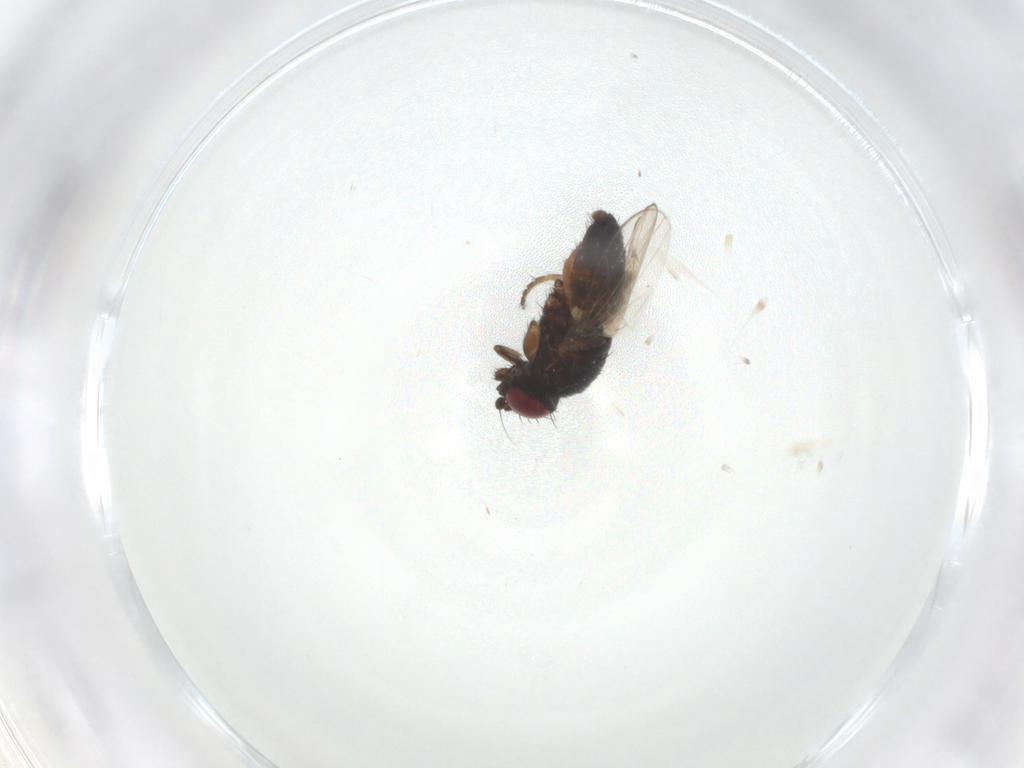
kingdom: Animalia
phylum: Arthropoda
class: Insecta
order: Diptera
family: Milichiidae
